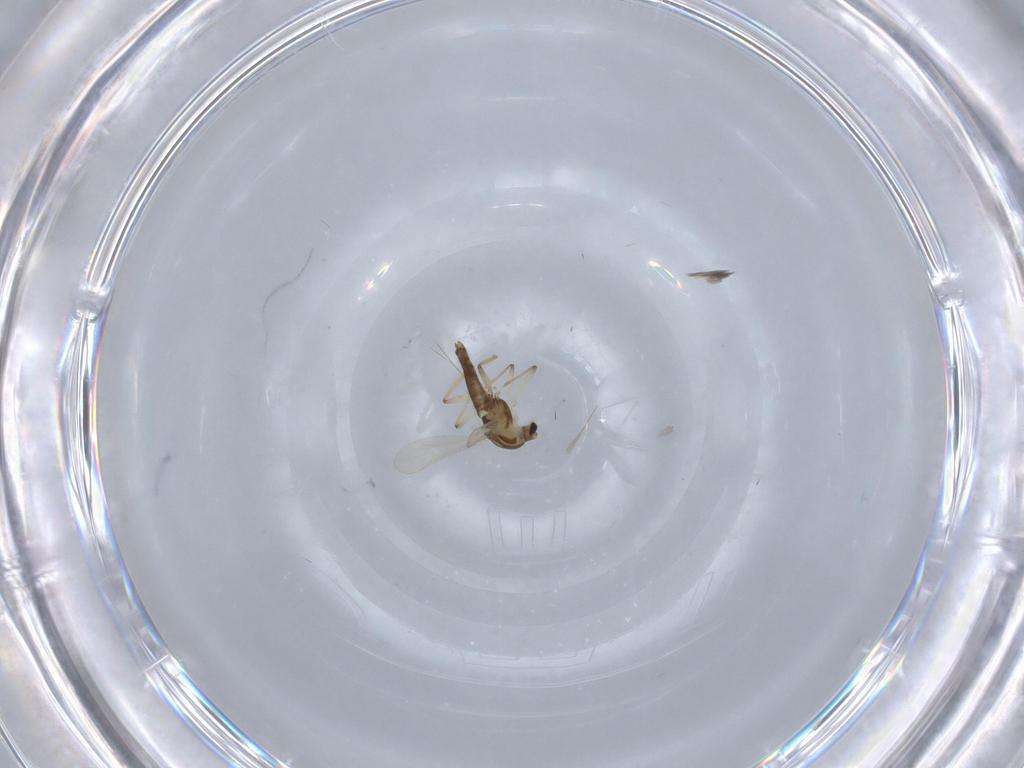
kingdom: Animalia
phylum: Arthropoda
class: Insecta
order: Diptera
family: Chironomidae
